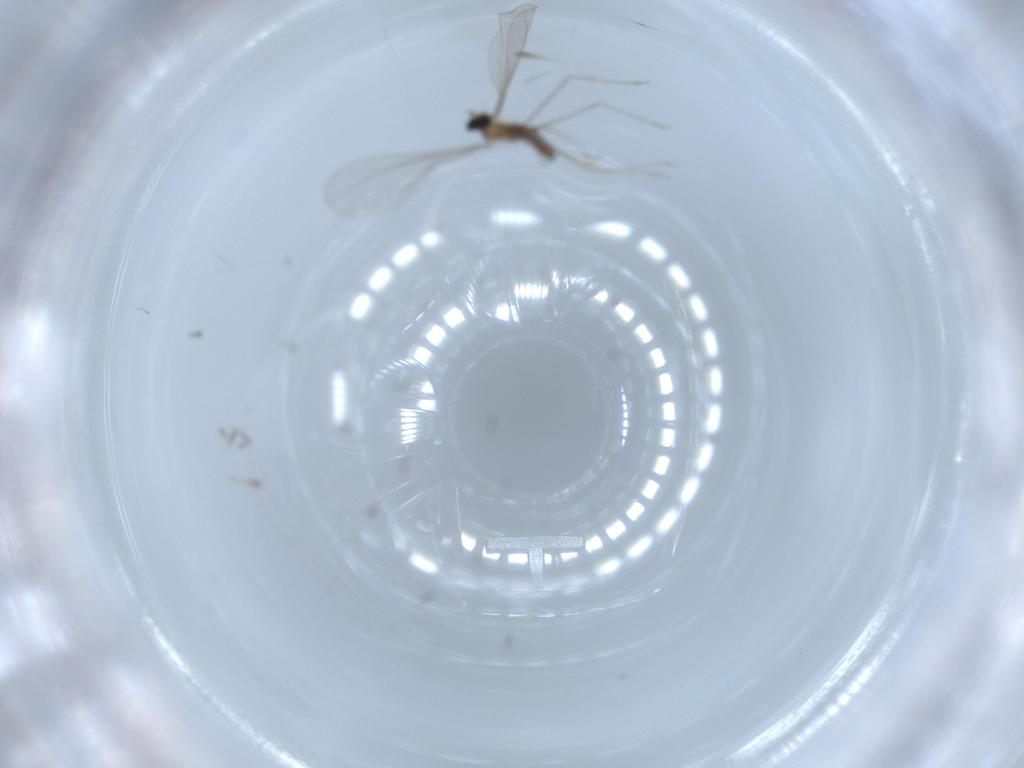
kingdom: Animalia
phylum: Arthropoda
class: Insecta
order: Diptera
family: Cecidomyiidae
